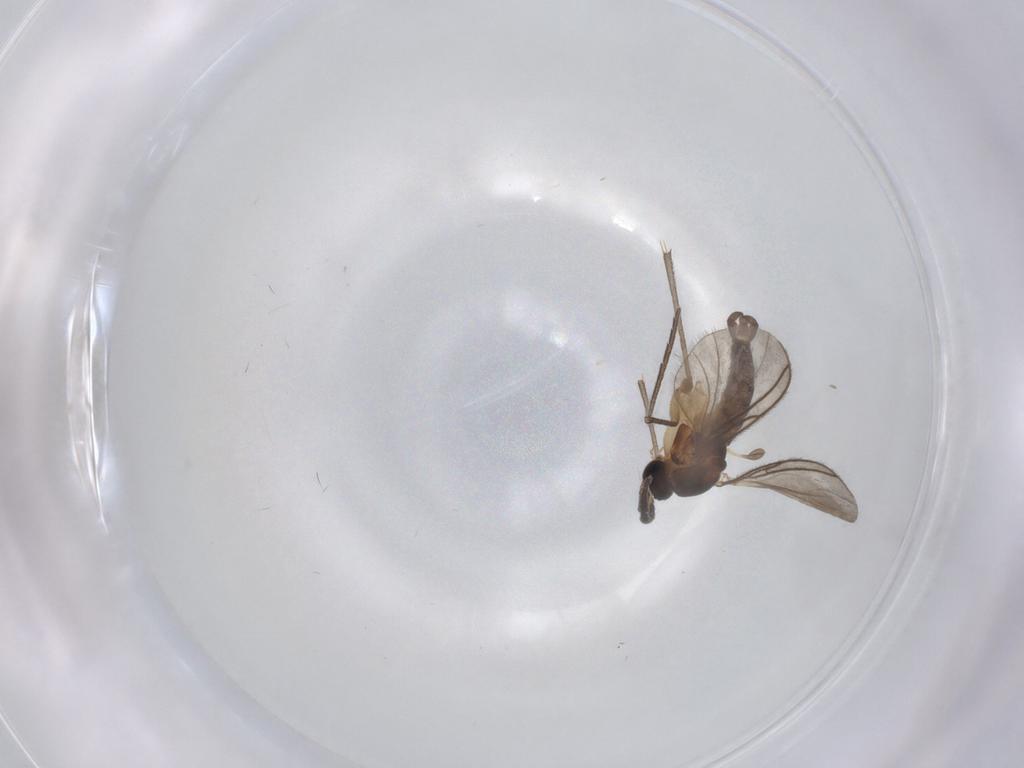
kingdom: Animalia
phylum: Arthropoda
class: Insecta
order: Diptera
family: Sciaridae
